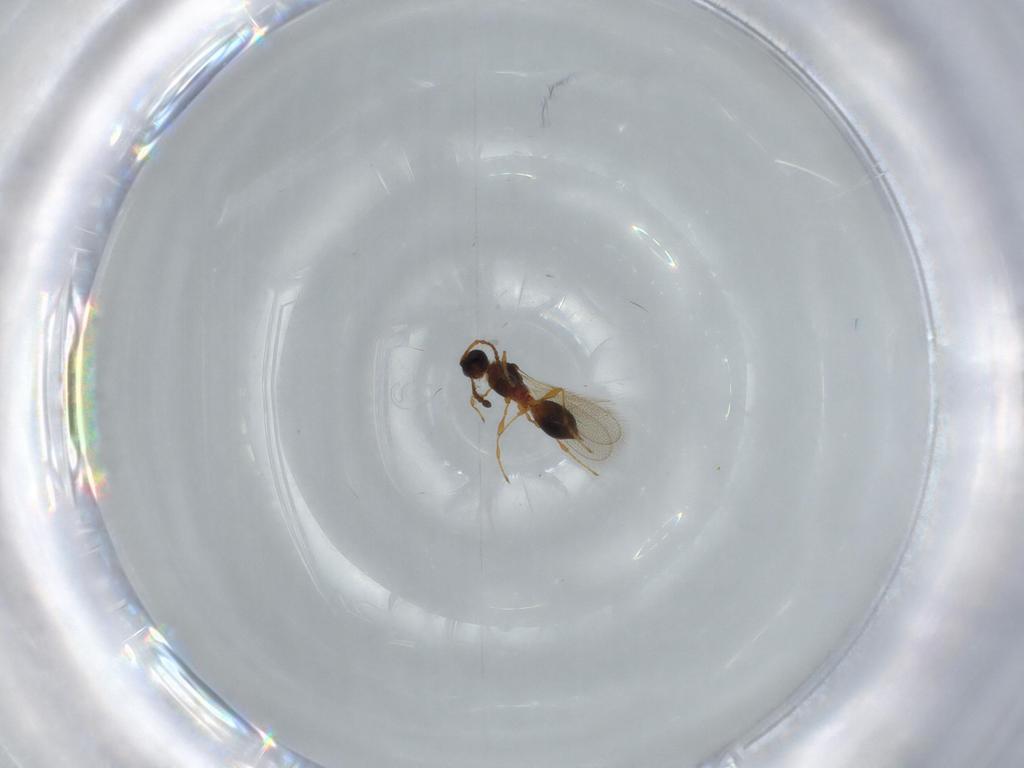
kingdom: Animalia
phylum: Arthropoda
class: Insecta
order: Hymenoptera
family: Diapriidae
